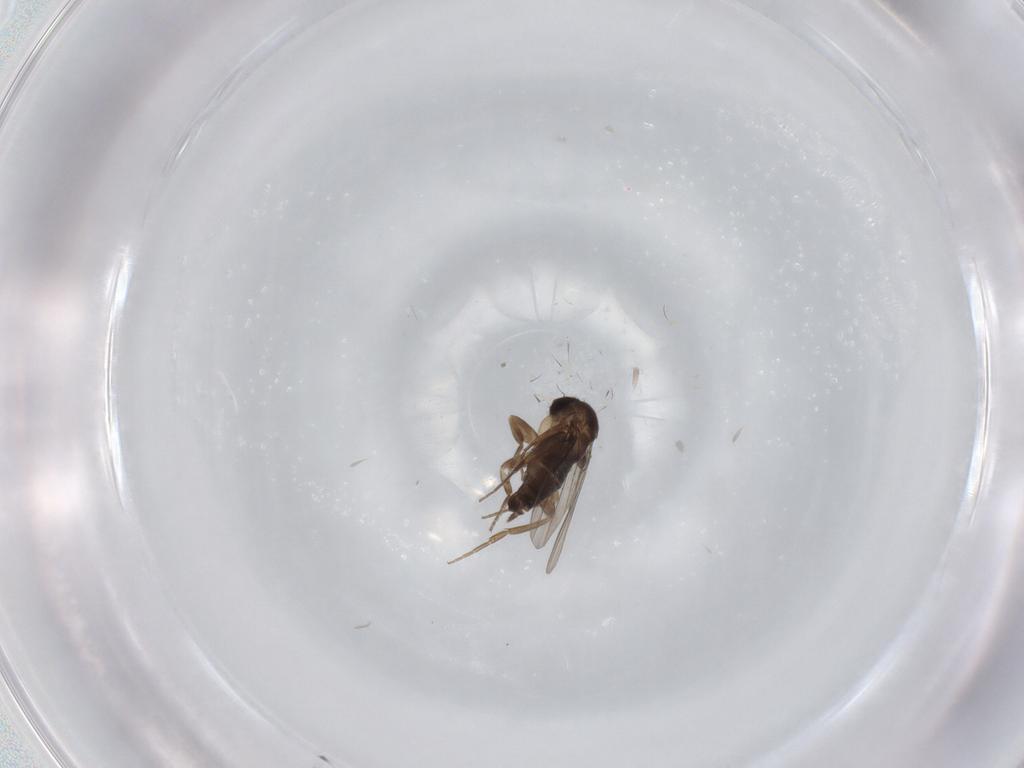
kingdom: Animalia
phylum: Arthropoda
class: Insecta
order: Diptera
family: Phoridae
